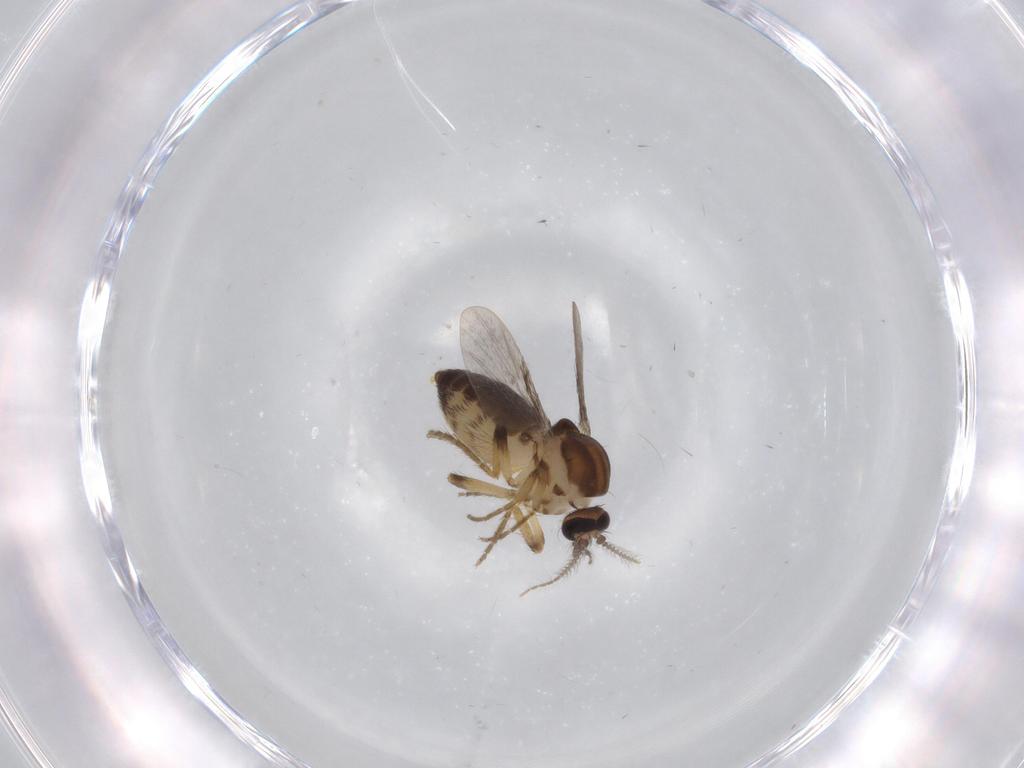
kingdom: Animalia
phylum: Arthropoda
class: Insecta
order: Diptera
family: Ceratopogonidae
